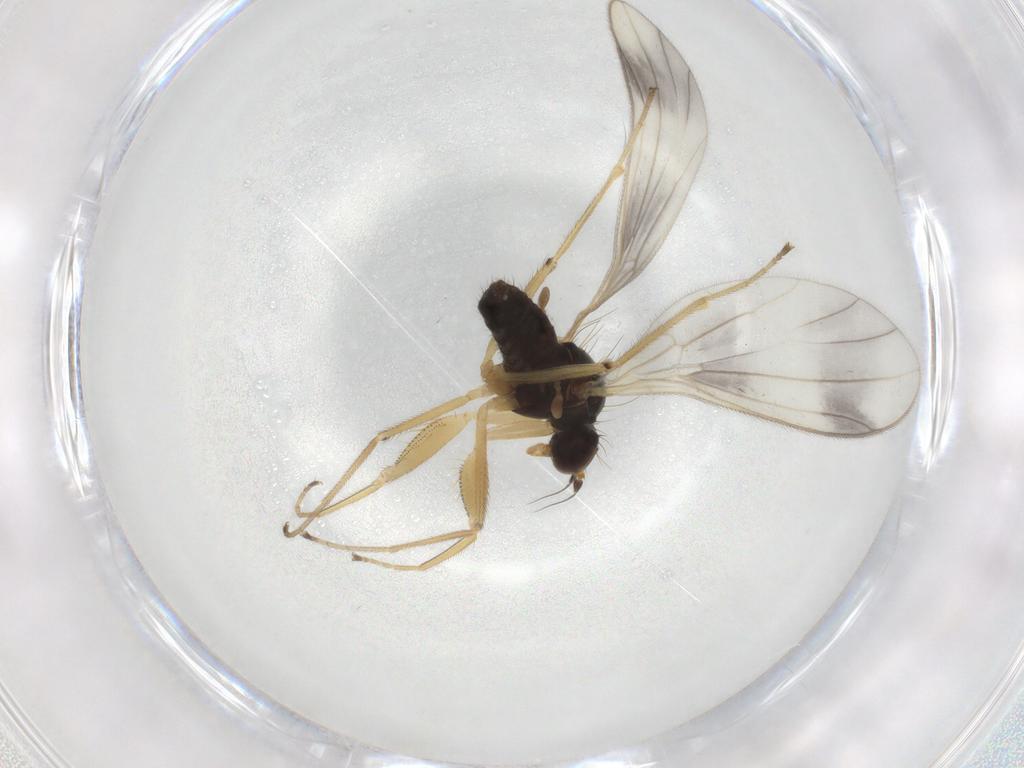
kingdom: Animalia
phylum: Arthropoda
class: Insecta
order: Diptera
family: Empididae
